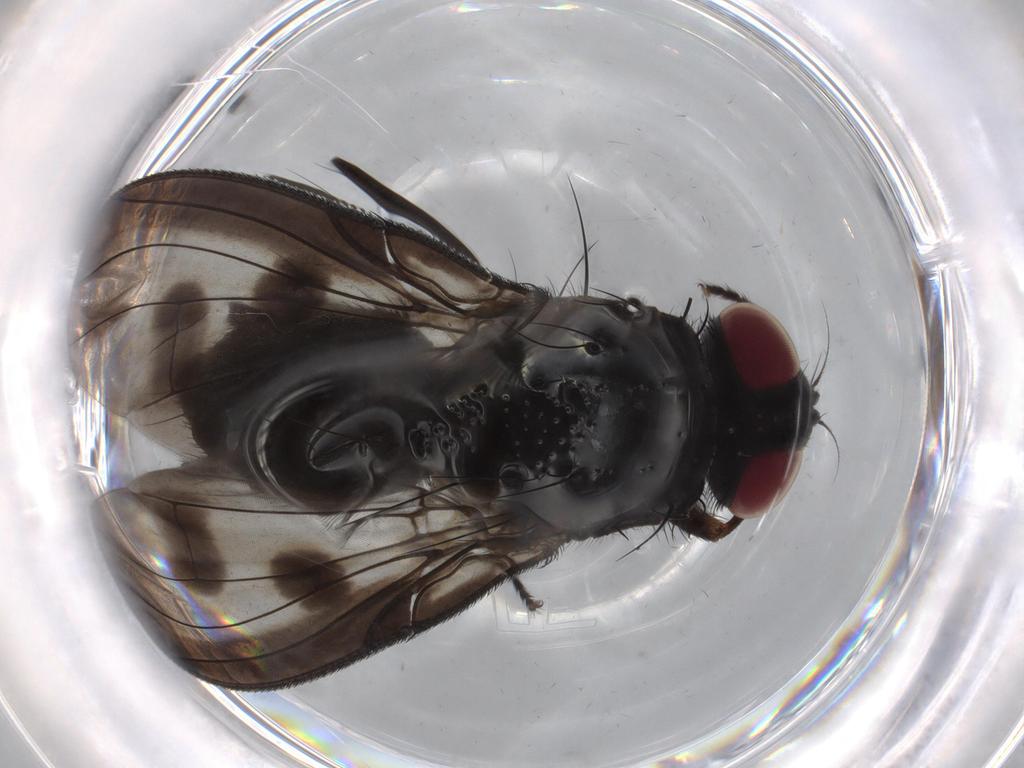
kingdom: Animalia
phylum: Arthropoda
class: Insecta
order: Diptera
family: Muscidae
